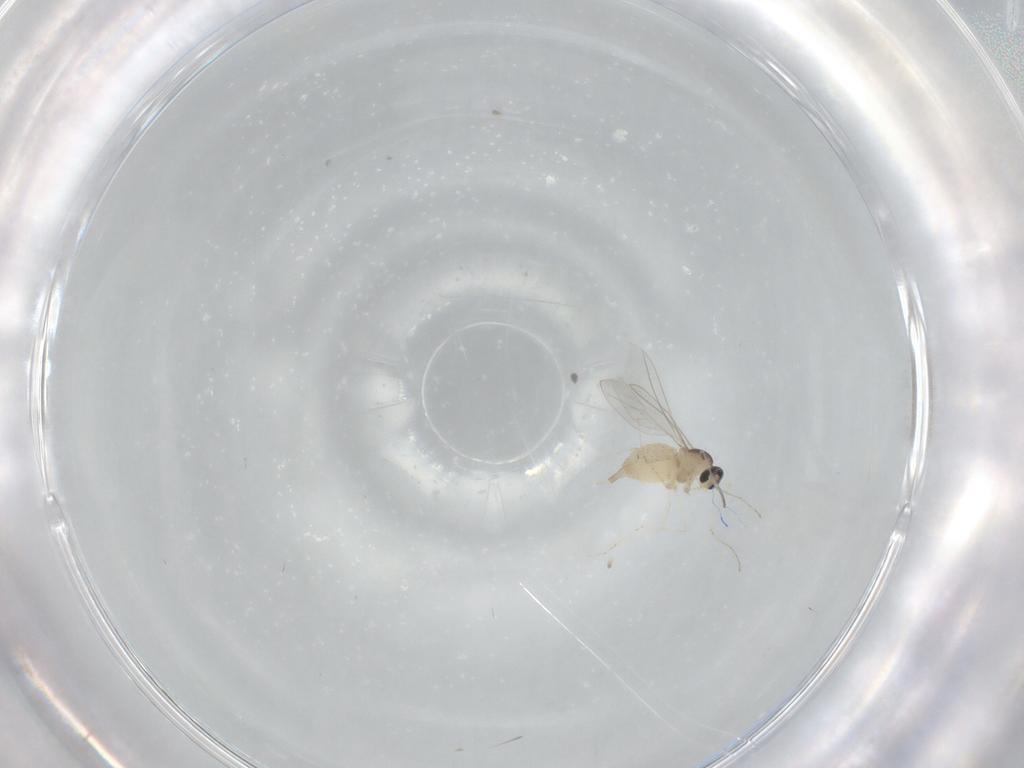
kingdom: Animalia
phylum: Arthropoda
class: Insecta
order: Diptera
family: Cecidomyiidae
